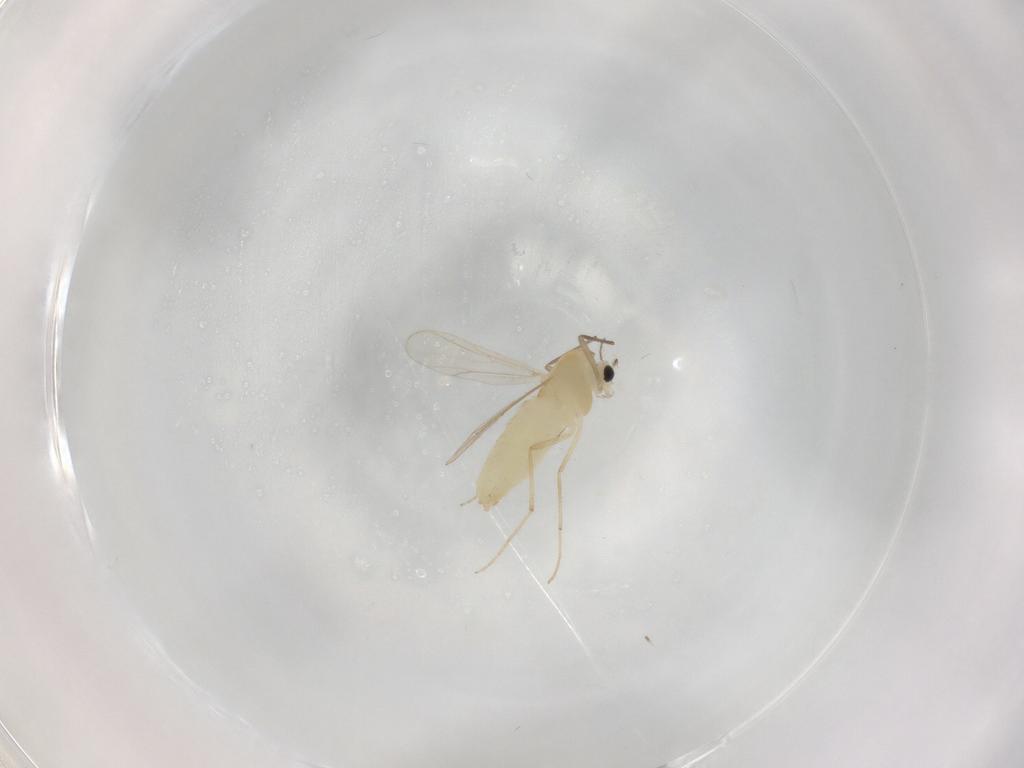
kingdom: Animalia
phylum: Arthropoda
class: Insecta
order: Diptera
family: Chironomidae
